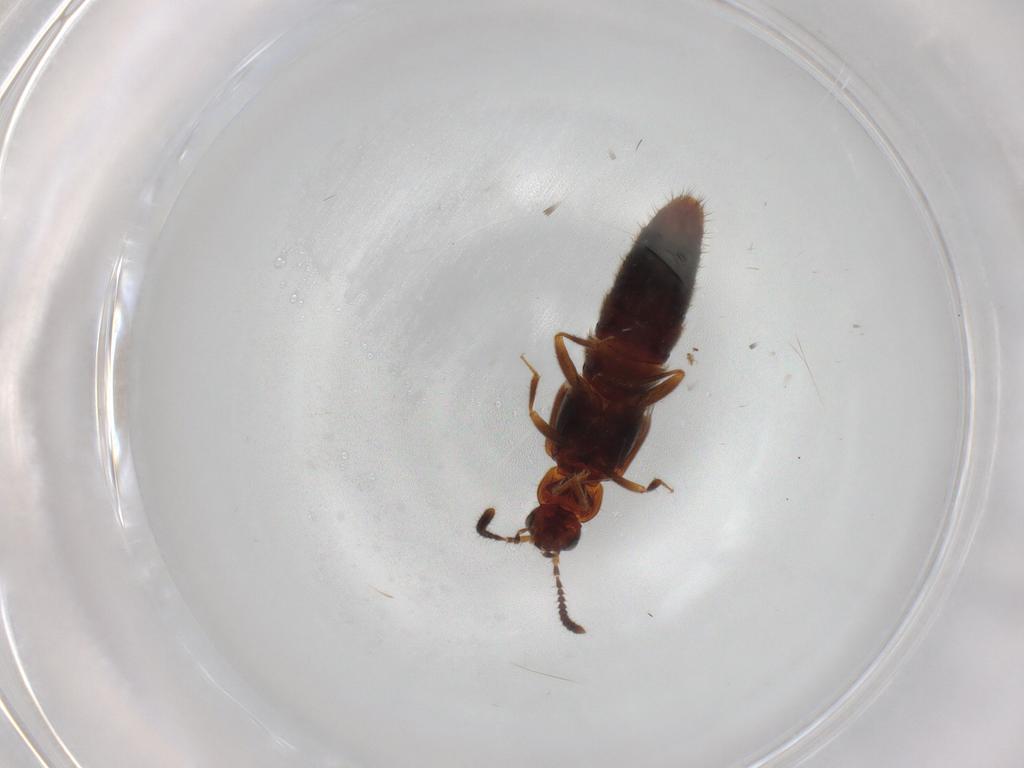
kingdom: Animalia
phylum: Arthropoda
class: Insecta
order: Coleoptera
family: Staphylinidae
